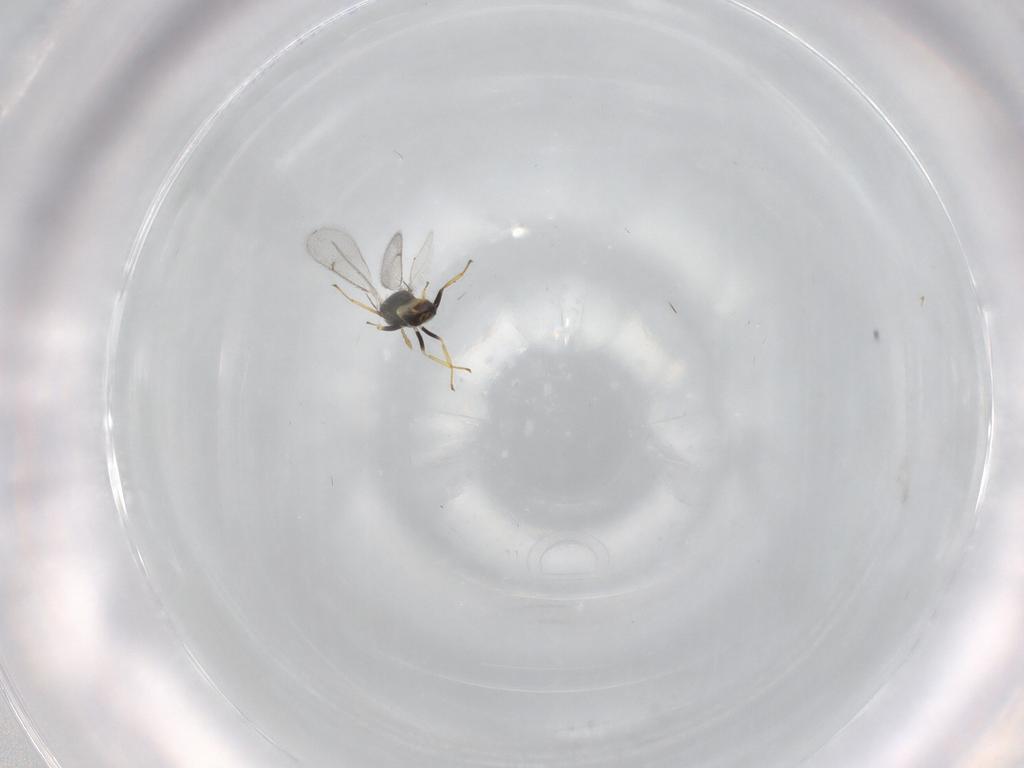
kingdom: Animalia
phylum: Arthropoda
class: Insecta
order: Hymenoptera
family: Eulophidae
